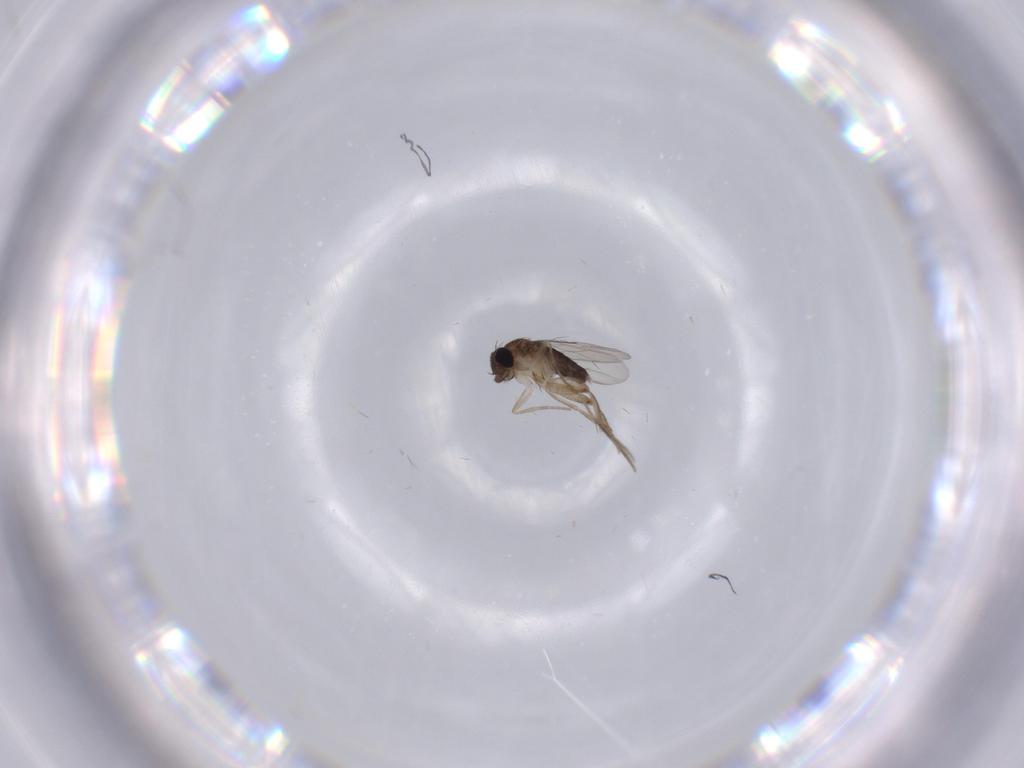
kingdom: Animalia
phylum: Arthropoda
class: Insecta
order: Diptera
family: Phoridae
